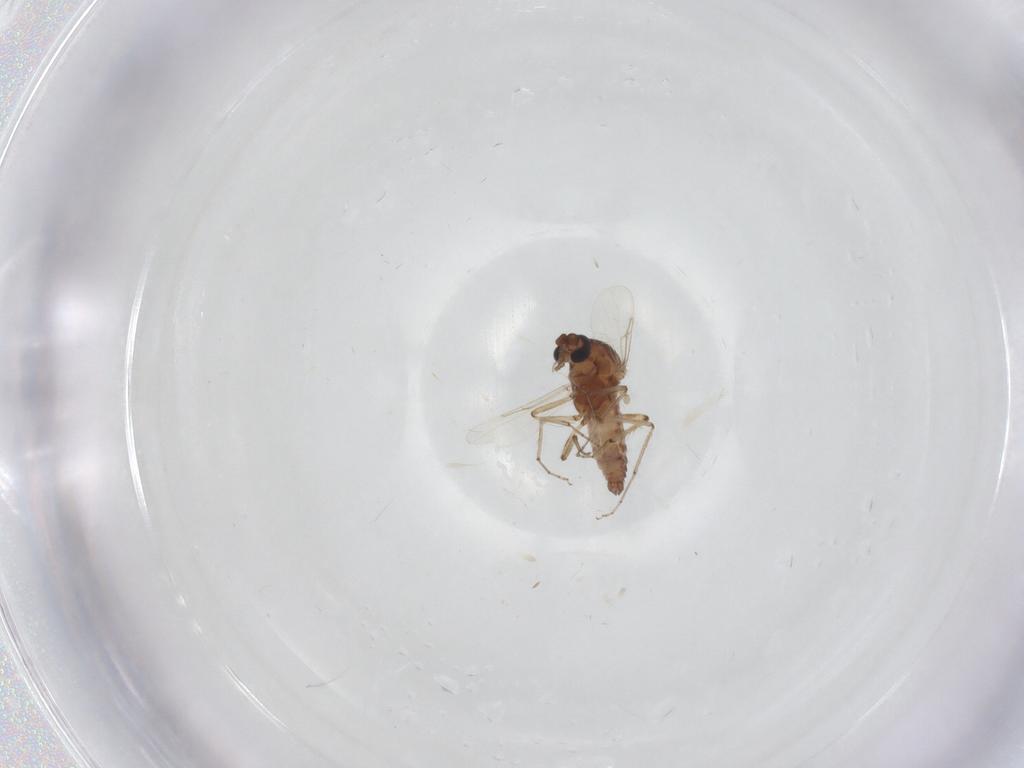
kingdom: Animalia
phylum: Arthropoda
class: Insecta
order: Diptera
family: Ceratopogonidae
